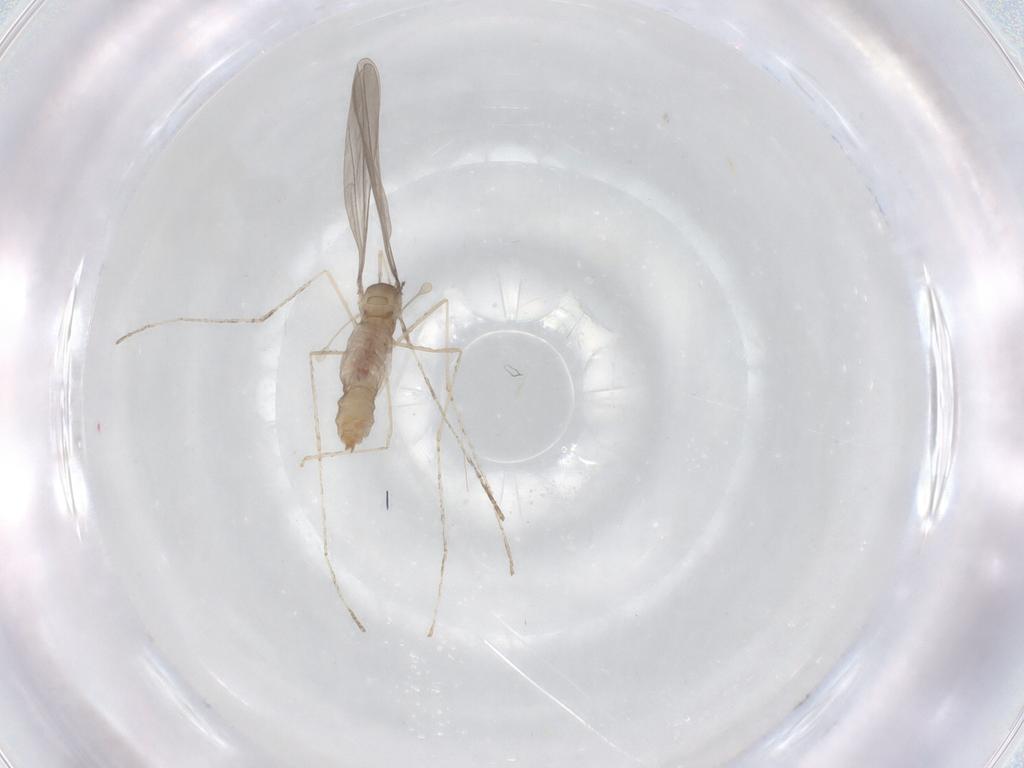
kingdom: Animalia
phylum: Arthropoda
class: Insecta
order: Diptera
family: Cecidomyiidae
